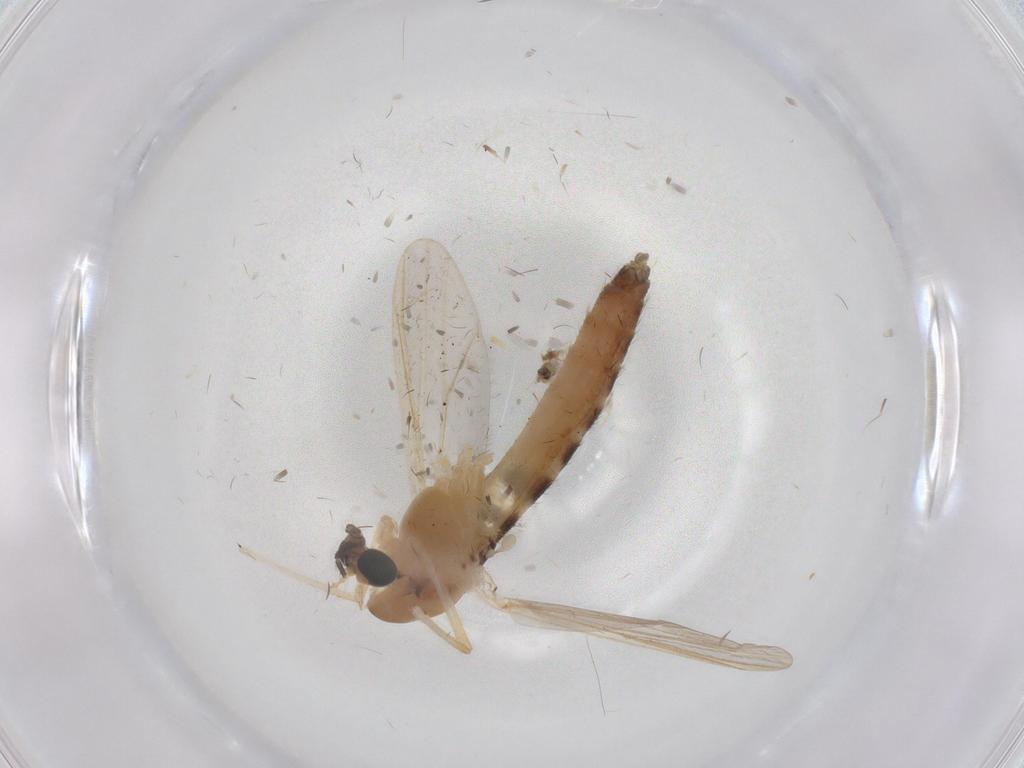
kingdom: Animalia
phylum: Arthropoda
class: Insecta
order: Diptera
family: Chironomidae
